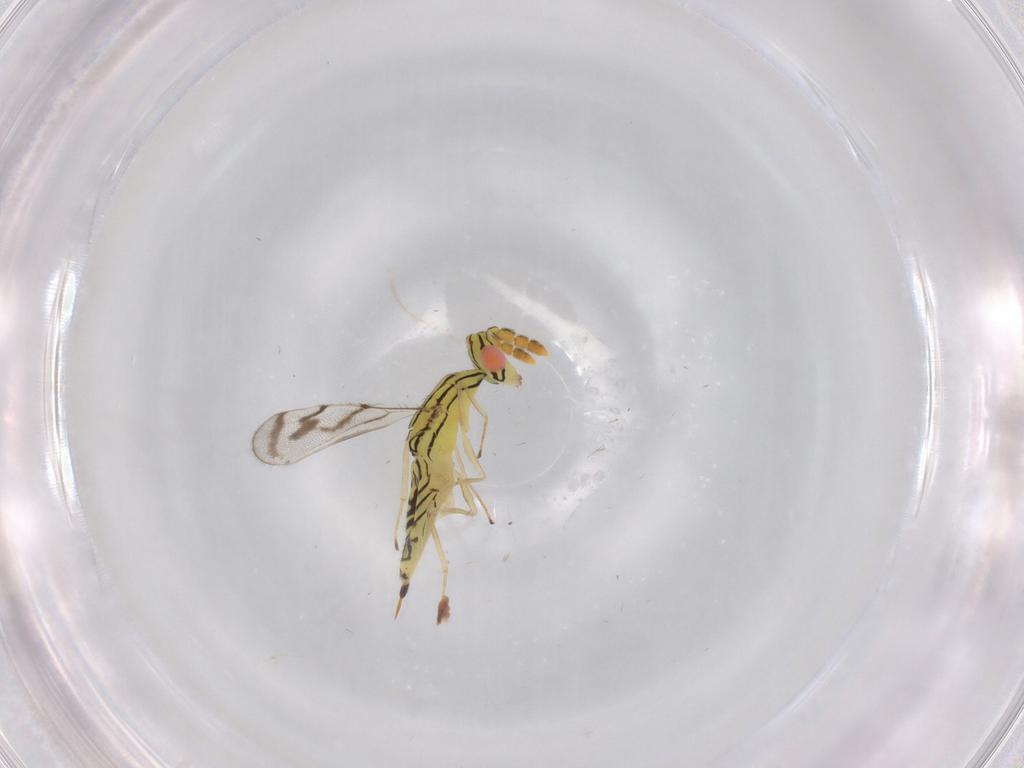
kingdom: Animalia
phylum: Arthropoda
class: Insecta
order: Hymenoptera
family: Eulophidae
